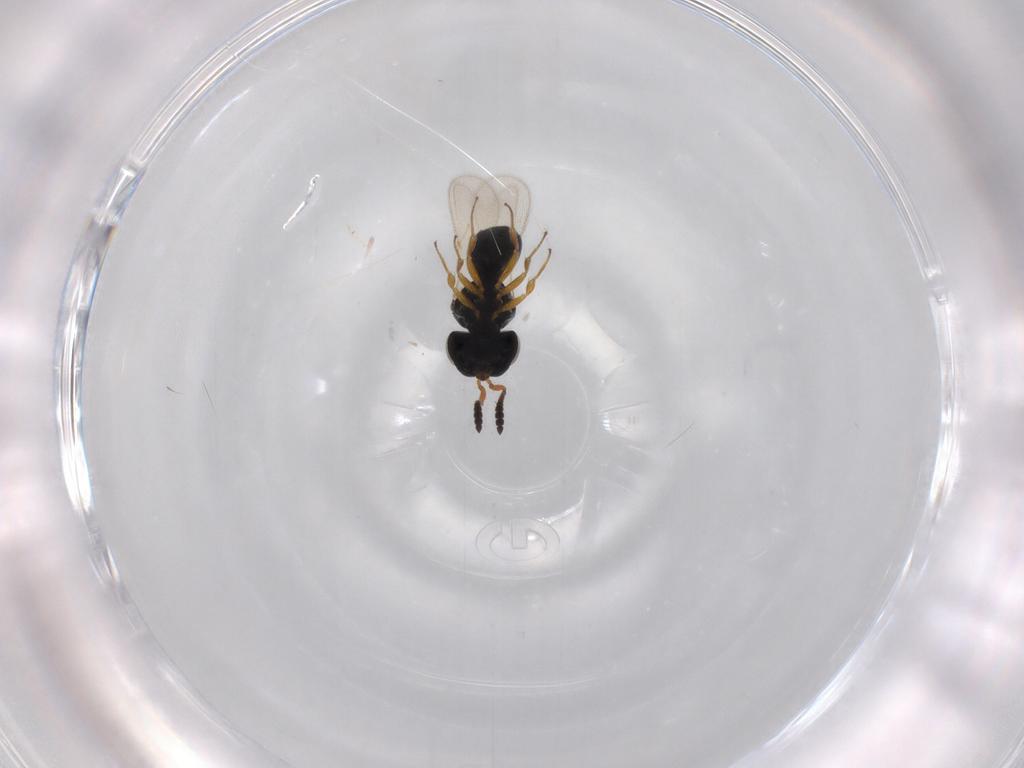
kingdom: Animalia
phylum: Arthropoda
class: Insecta
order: Hymenoptera
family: Scelionidae
